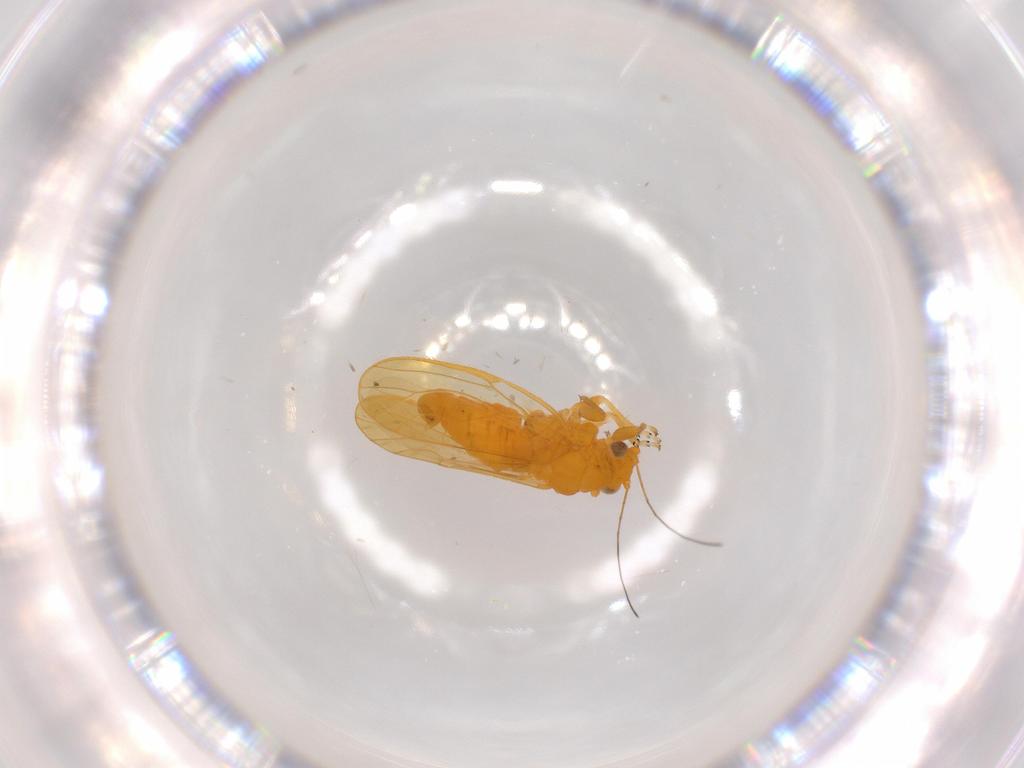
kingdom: Animalia
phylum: Arthropoda
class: Insecta
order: Hemiptera
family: Psyllidae
